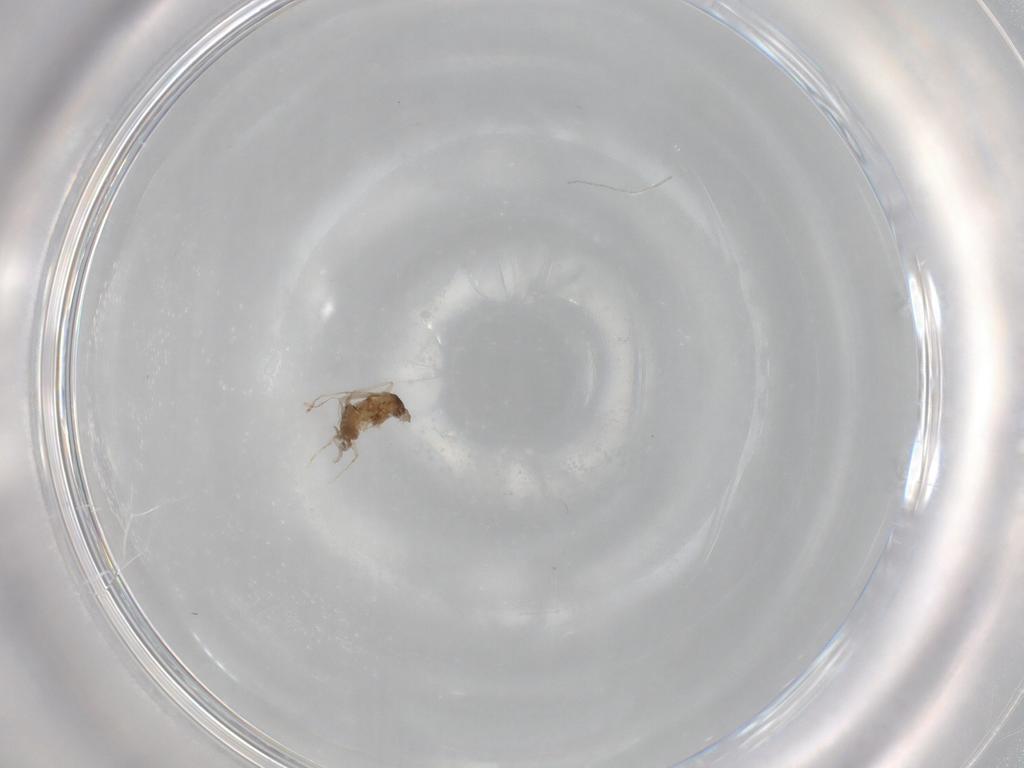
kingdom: Animalia
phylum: Arthropoda
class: Insecta
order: Diptera
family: Cecidomyiidae
